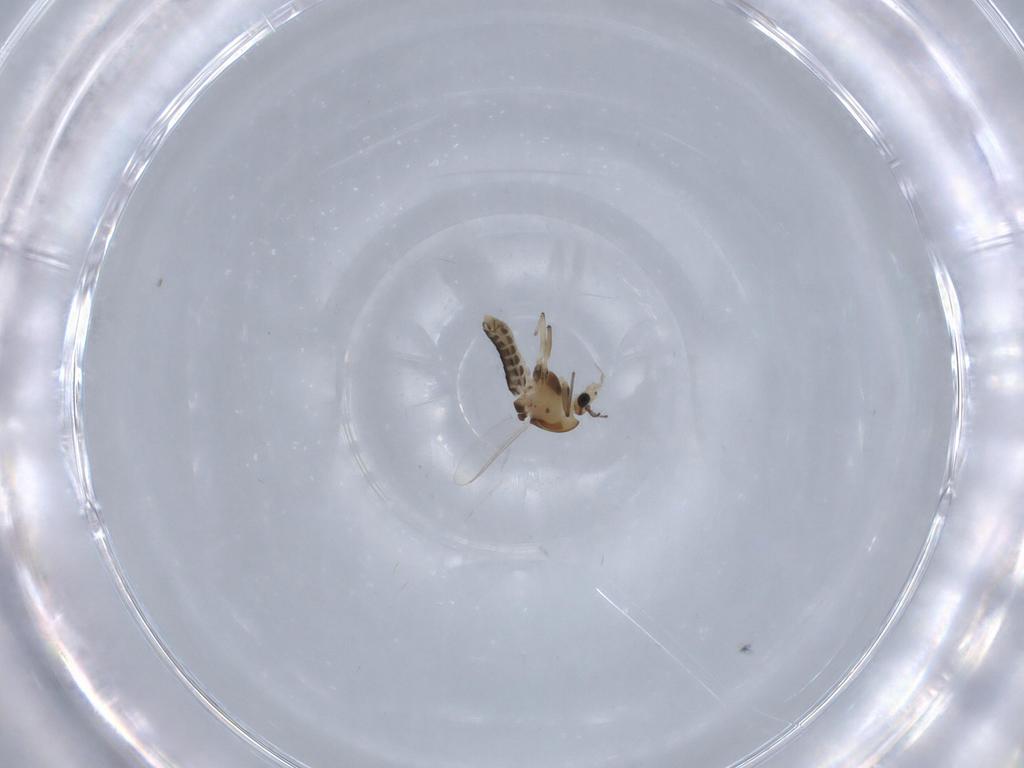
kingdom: Animalia
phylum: Arthropoda
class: Insecta
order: Diptera
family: Chironomidae
